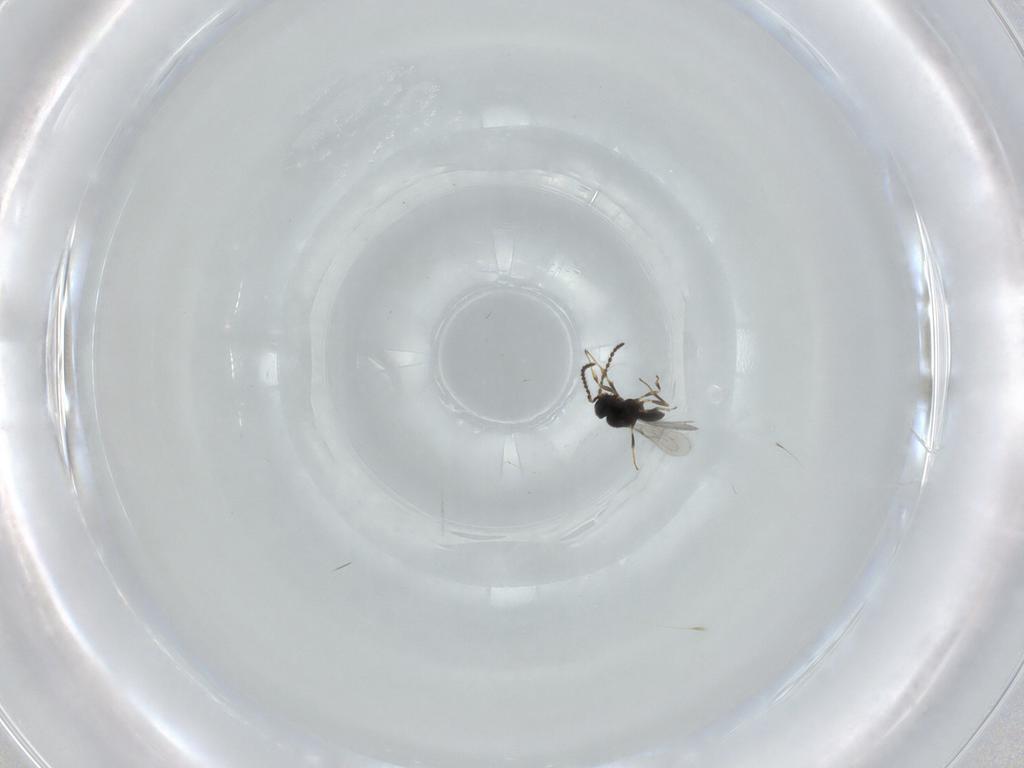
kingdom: Animalia
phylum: Arthropoda
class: Insecta
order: Hymenoptera
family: Scelionidae
